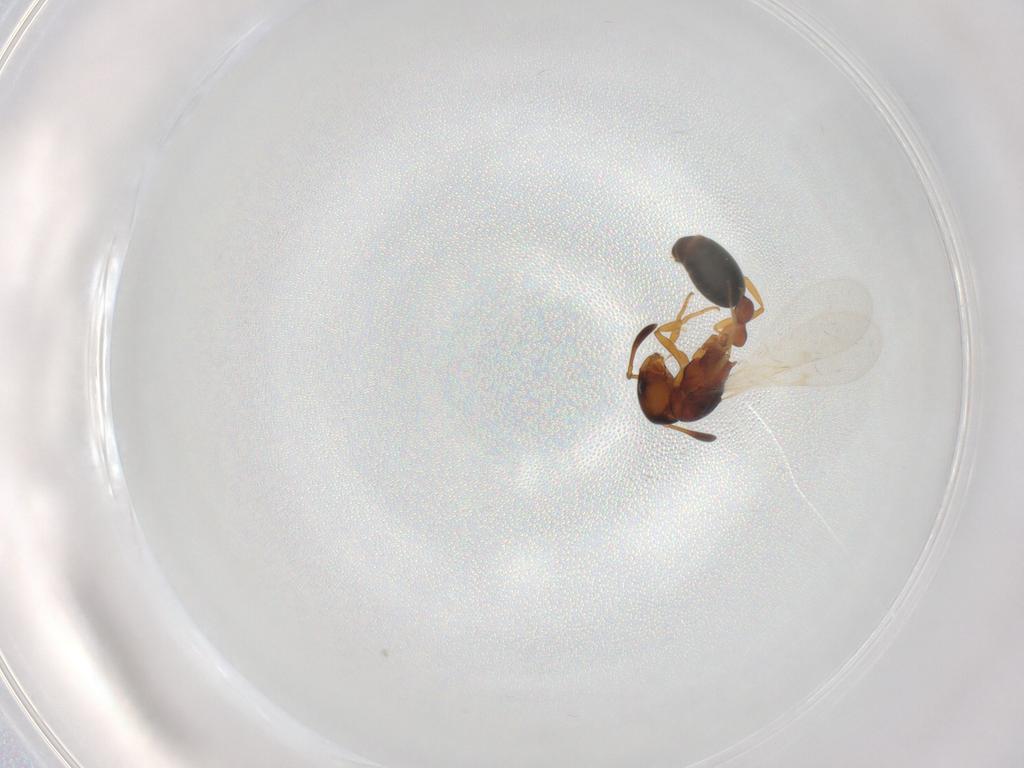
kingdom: Animalia
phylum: Arthropoda
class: Insecta
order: Hymenoptera
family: Formicidae
